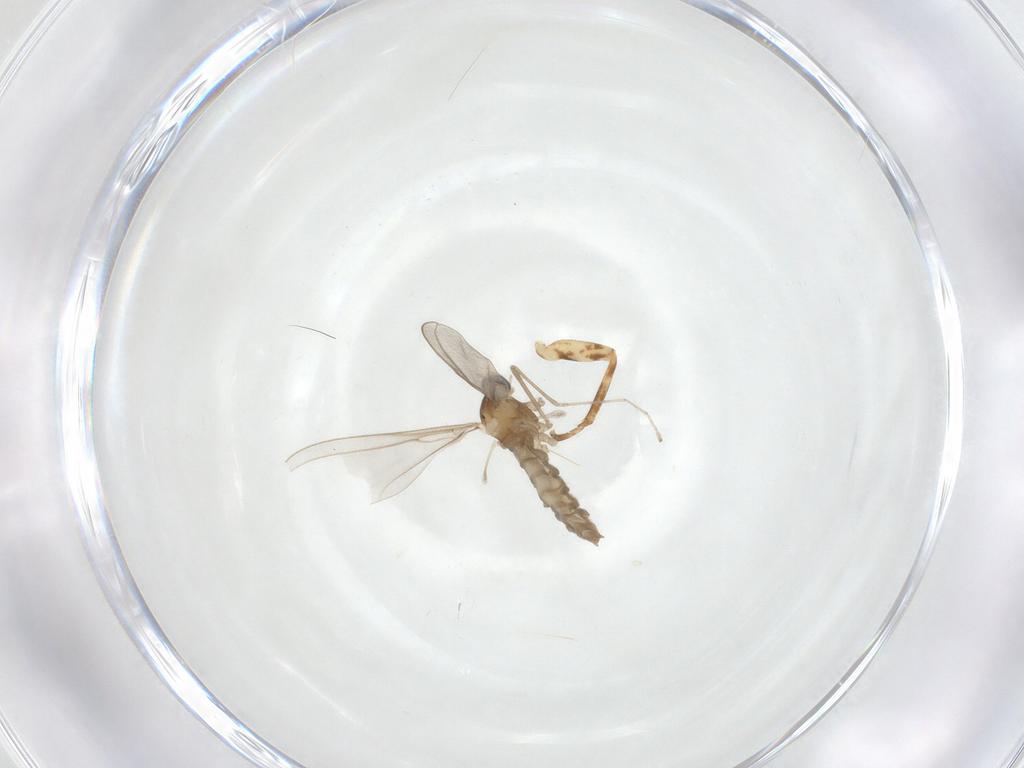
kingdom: Animalia
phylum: Arthropoda
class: Insecta
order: Diptera
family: Cecidomyiidae
